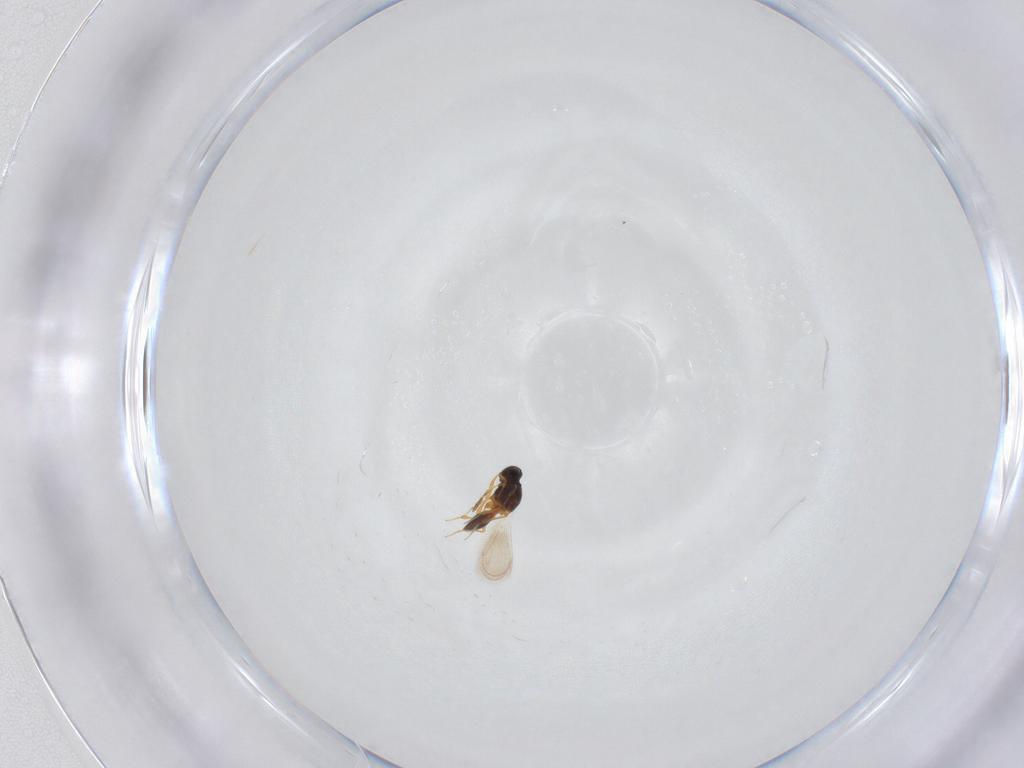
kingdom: Animalia
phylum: Arthropoda
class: Insecta
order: Hymenoptera
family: Platygastridae
